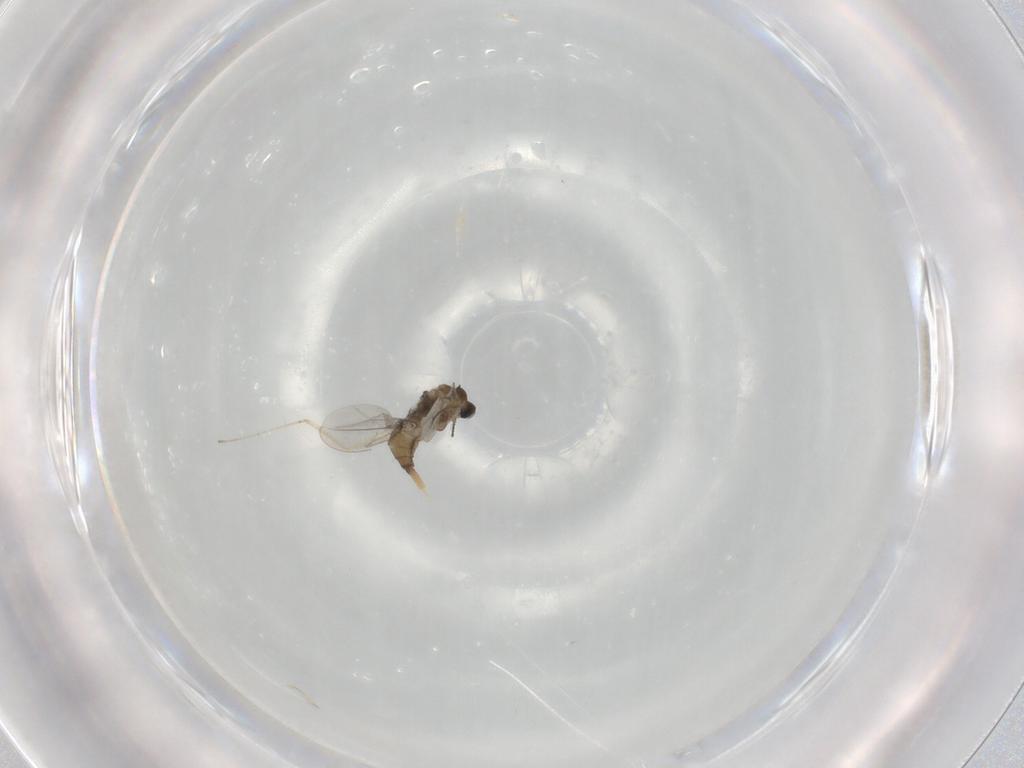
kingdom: Animalia
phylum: Arthropoda
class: Insecta
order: Diptera
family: Cecidomyiidae
